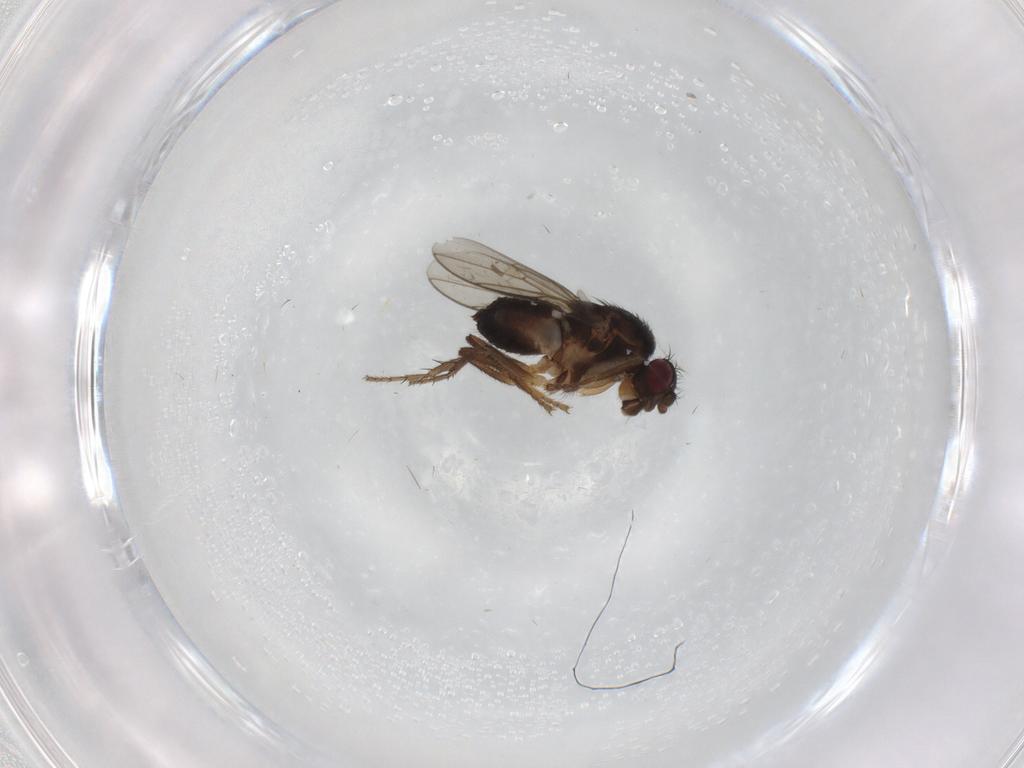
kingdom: Animalia
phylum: Arthropoda
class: Insecta
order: Diptera
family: Sphaeroceridae
